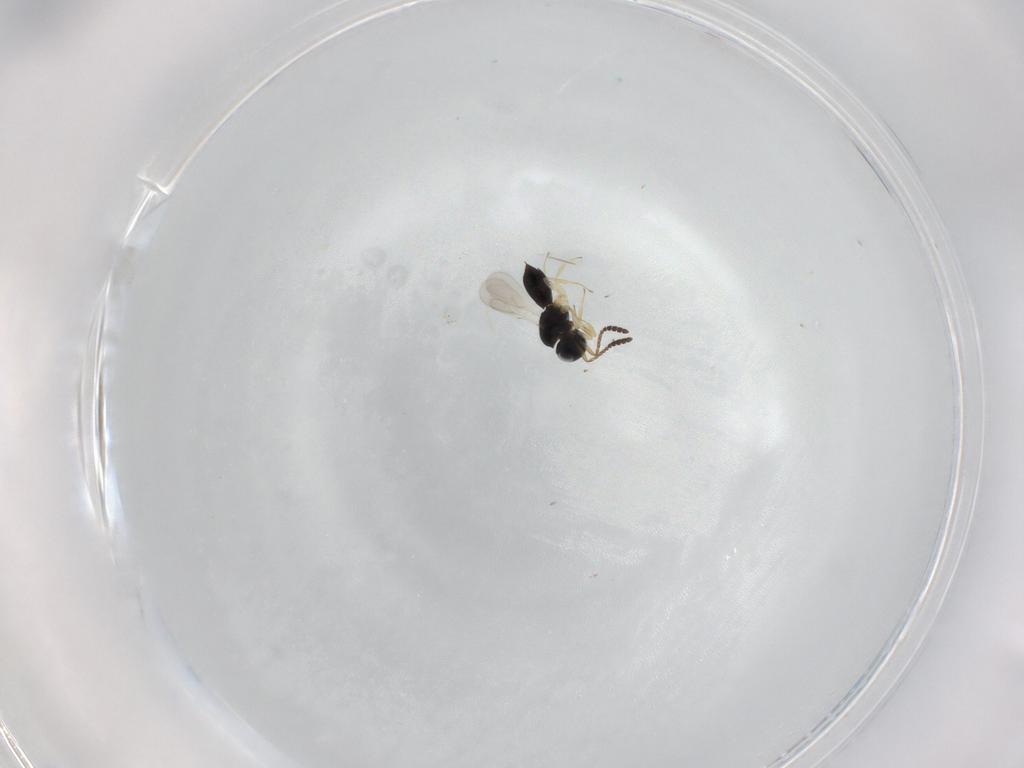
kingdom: Animalia
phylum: Arthropoda
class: Insecta
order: Hymenoptera
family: Scelionidae
